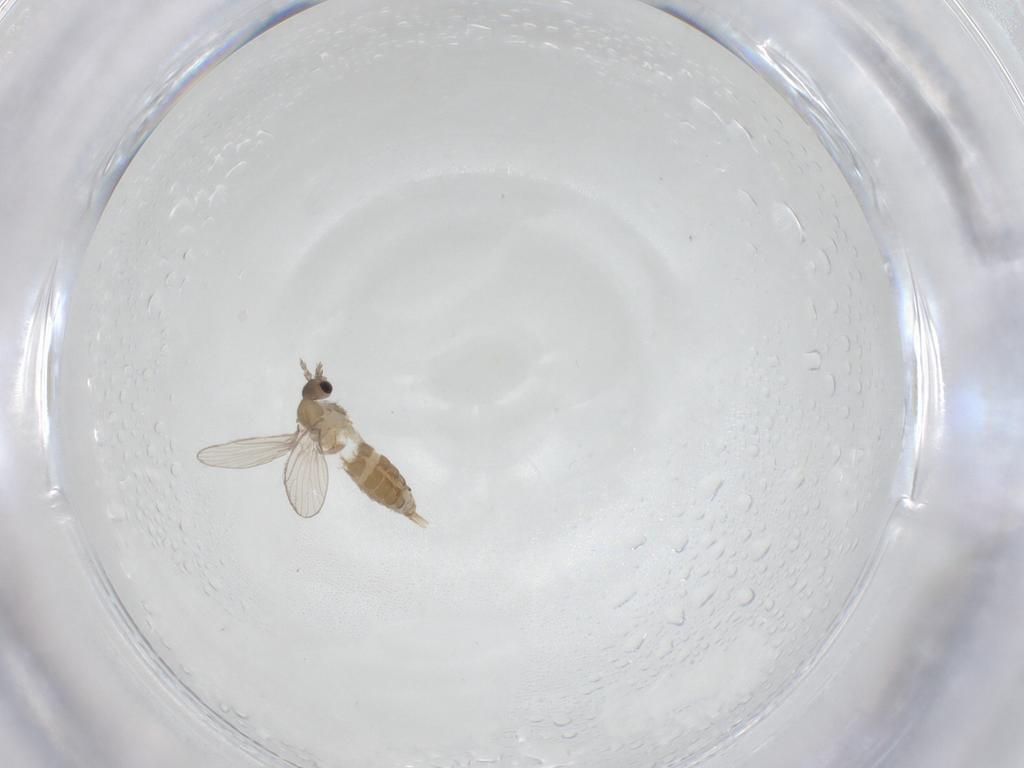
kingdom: Animalia
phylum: Arthropoda
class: Insecta
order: Diptera
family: Psychodidae
